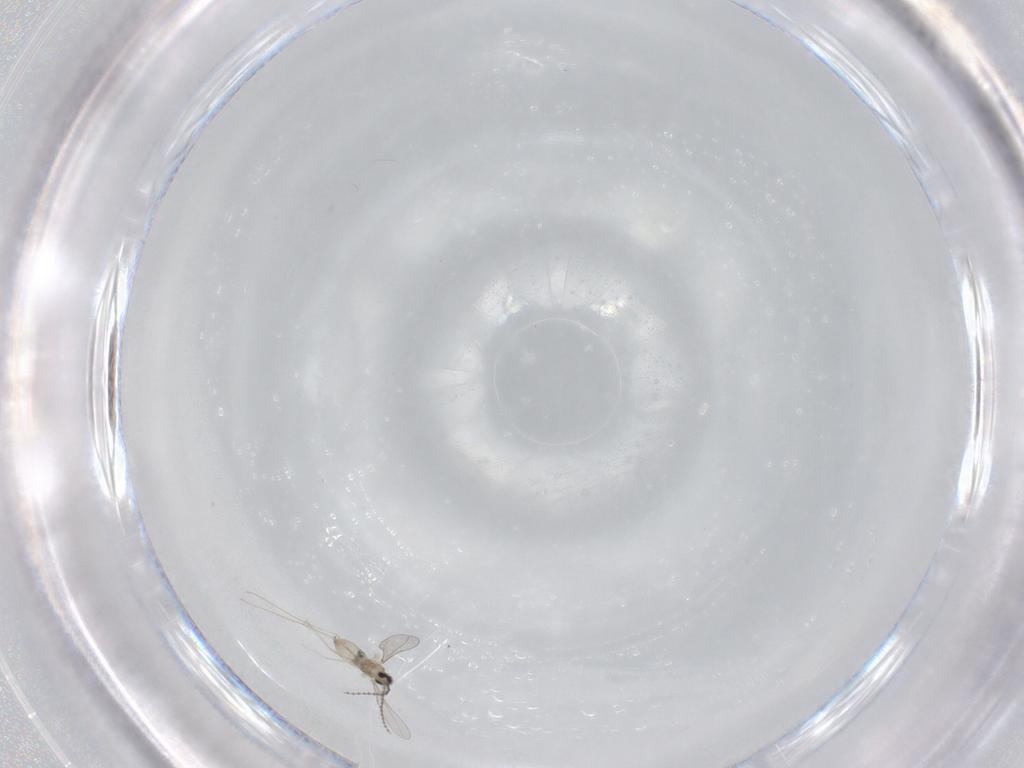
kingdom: Animalia
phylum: Arthropoda
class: Insecta
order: Diptera
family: Cecidomyiidae
